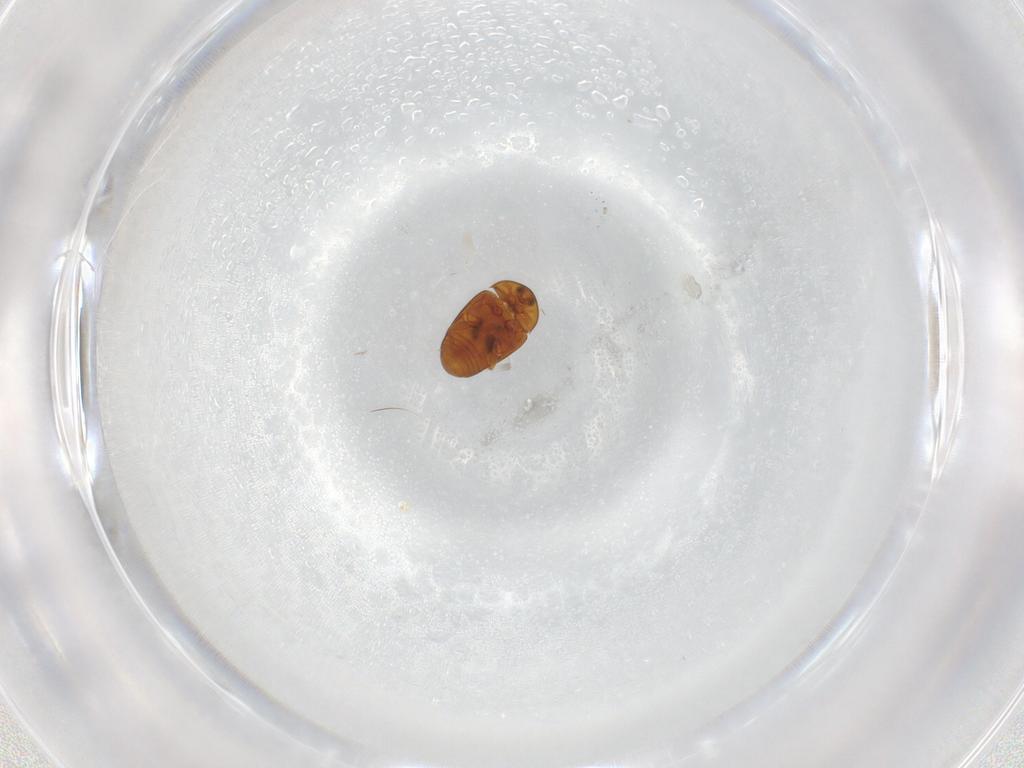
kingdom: Animalia
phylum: Arthropoda
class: Insecta
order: Coleoptera
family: Corylophidae
